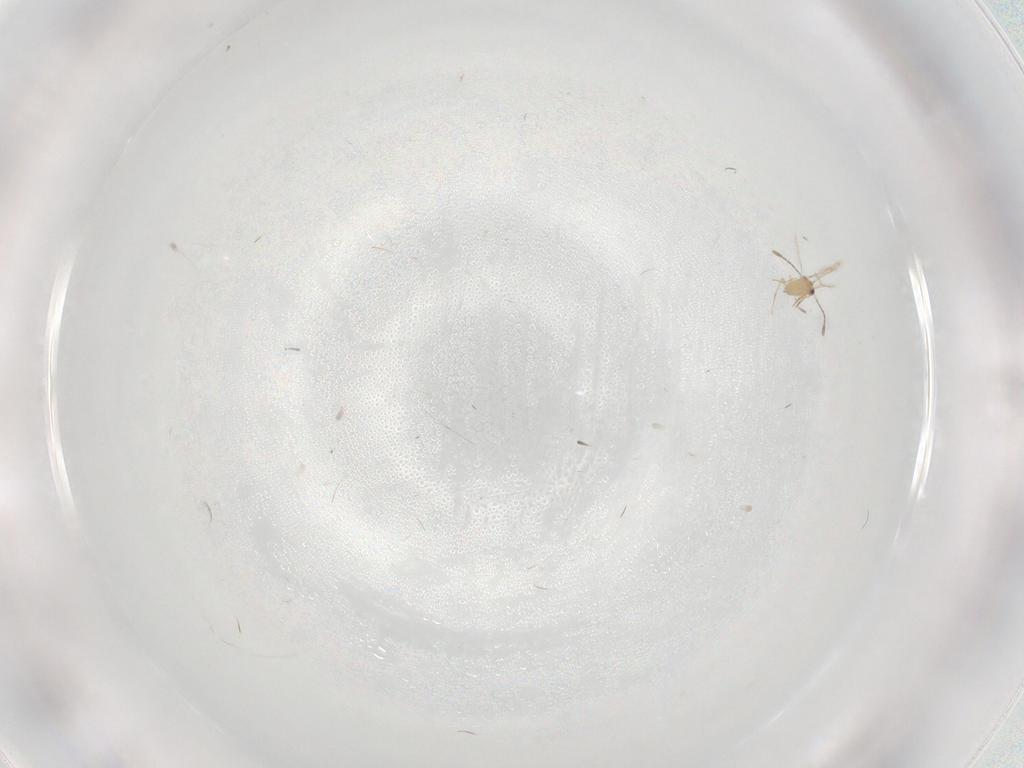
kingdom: Animalia
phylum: Arthropoda
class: Insecta
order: Hymenoptera
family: Mymaridae
